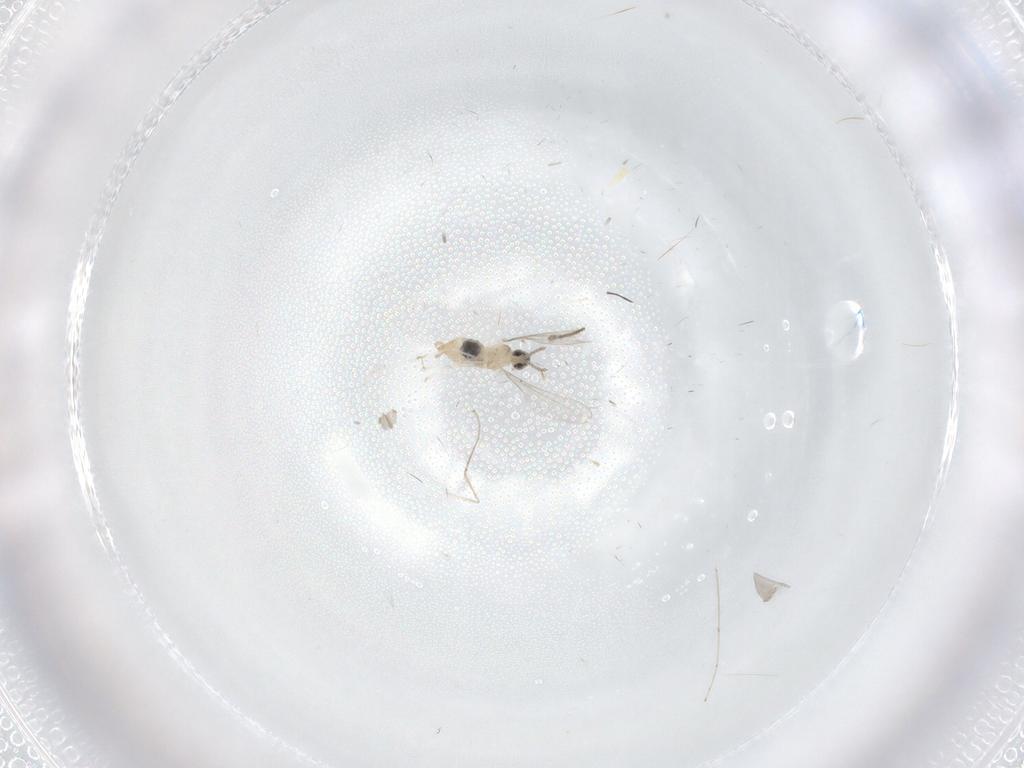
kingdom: Animalia
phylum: Arthropoda
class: Insecta
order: Diptera
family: Cecidomyiidae
